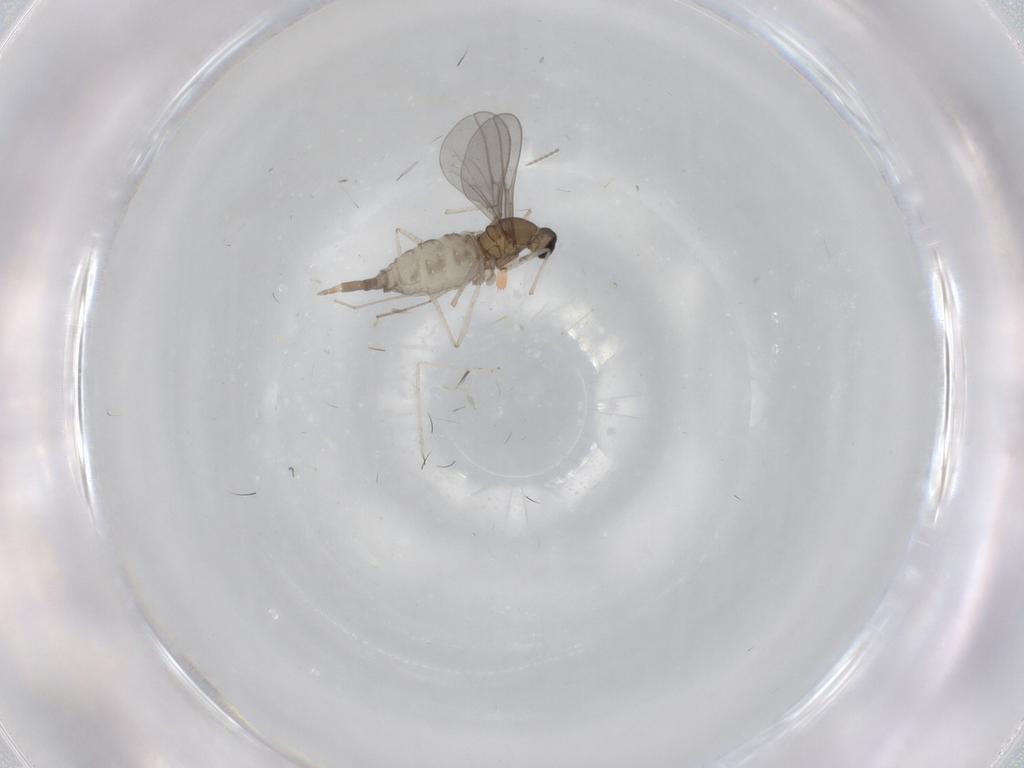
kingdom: Animalia
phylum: Arthropoda
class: Insecta
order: Diptera
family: Cecidomyiidae
